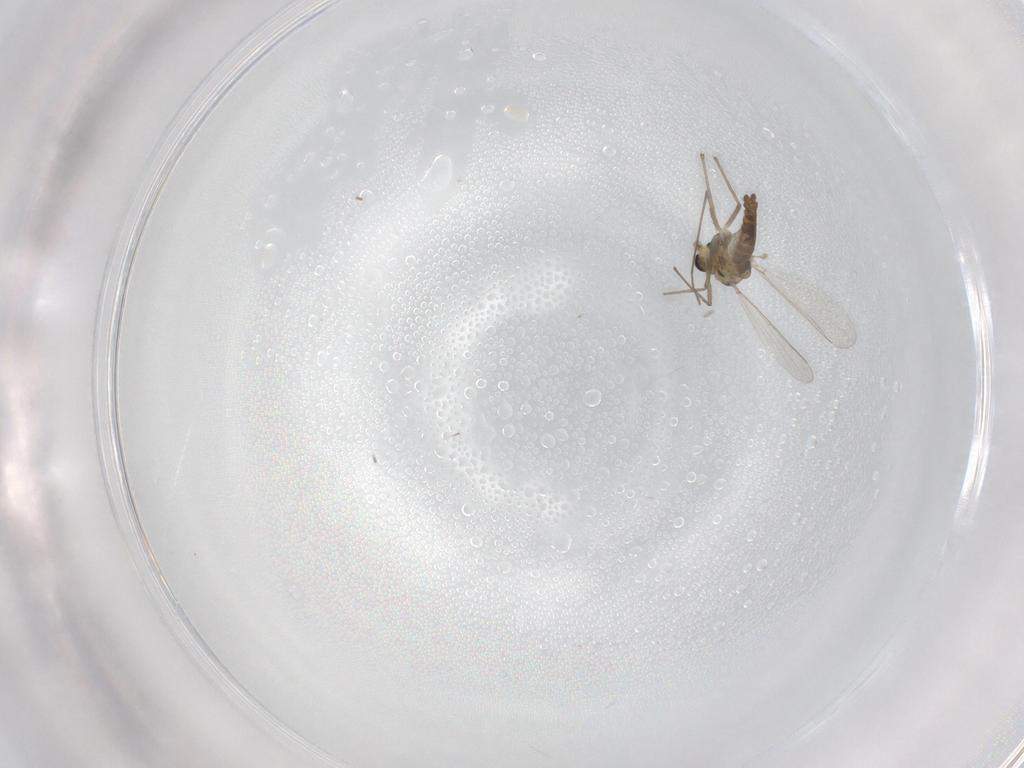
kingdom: Animalia
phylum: Arthropoda
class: Insecta
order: Diptera
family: Chironomidae
